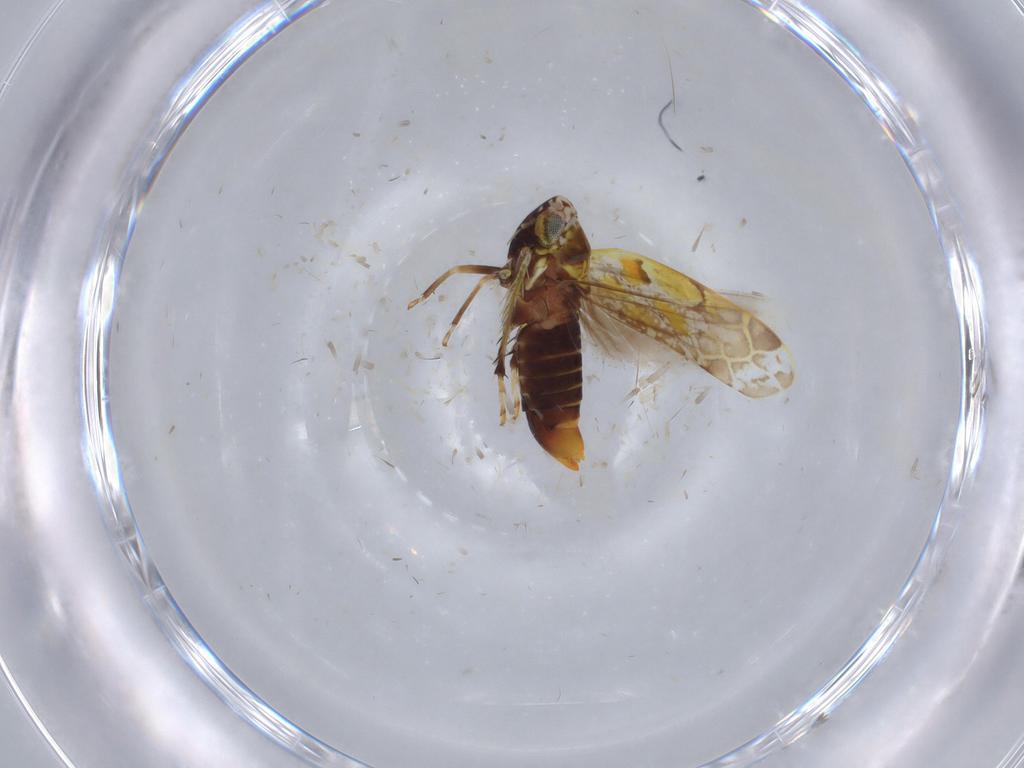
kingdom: Animalia
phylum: Arthropoda
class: Insecta
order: Hemiptera
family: Cicadellidae
